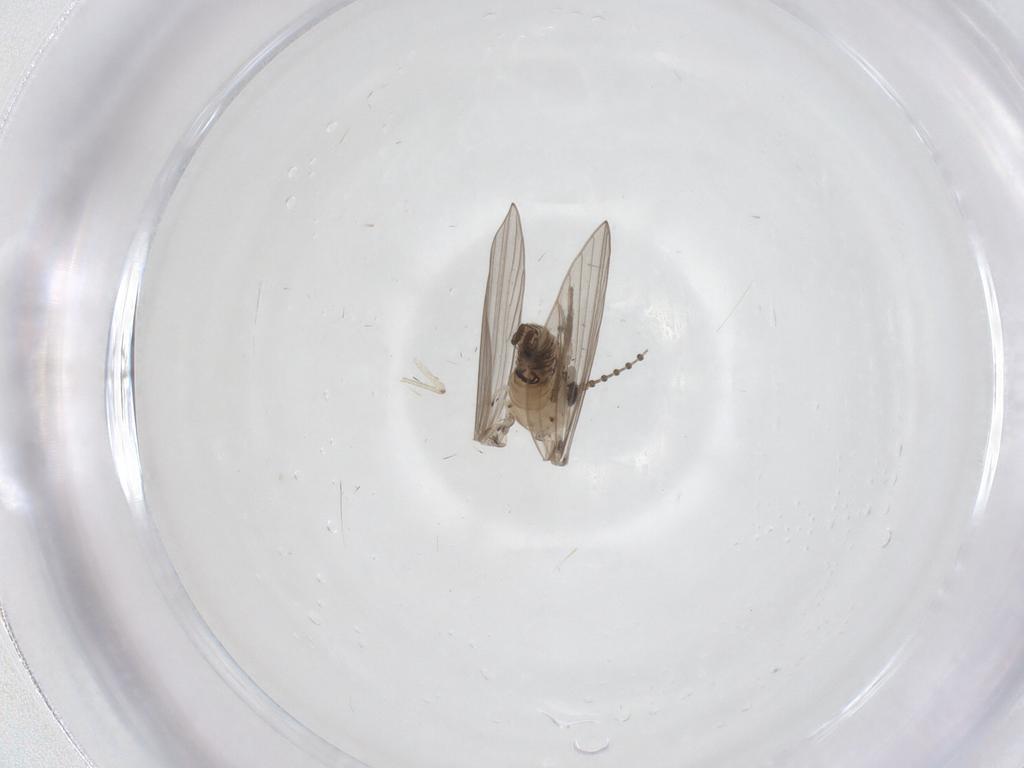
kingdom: Animalia
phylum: Arthropoda
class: Insecta
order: Diptera
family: Psychodidae
